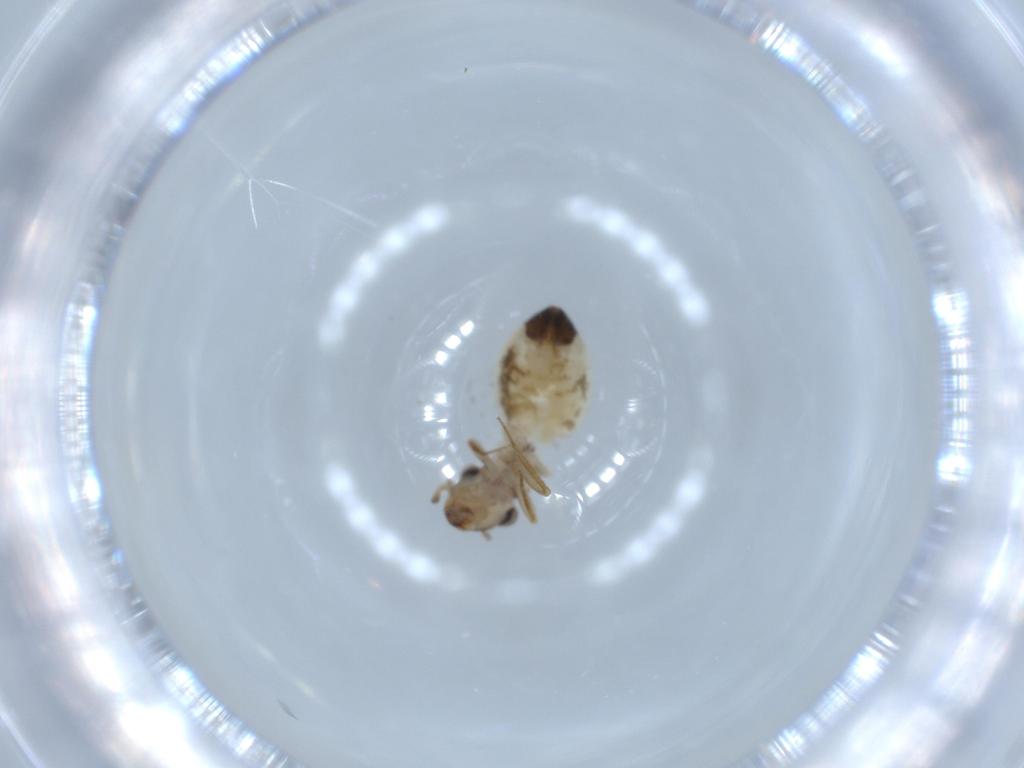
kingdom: Animalia
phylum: Arthropoda
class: Insecta
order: Psocodea
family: Lepidopsocidae
